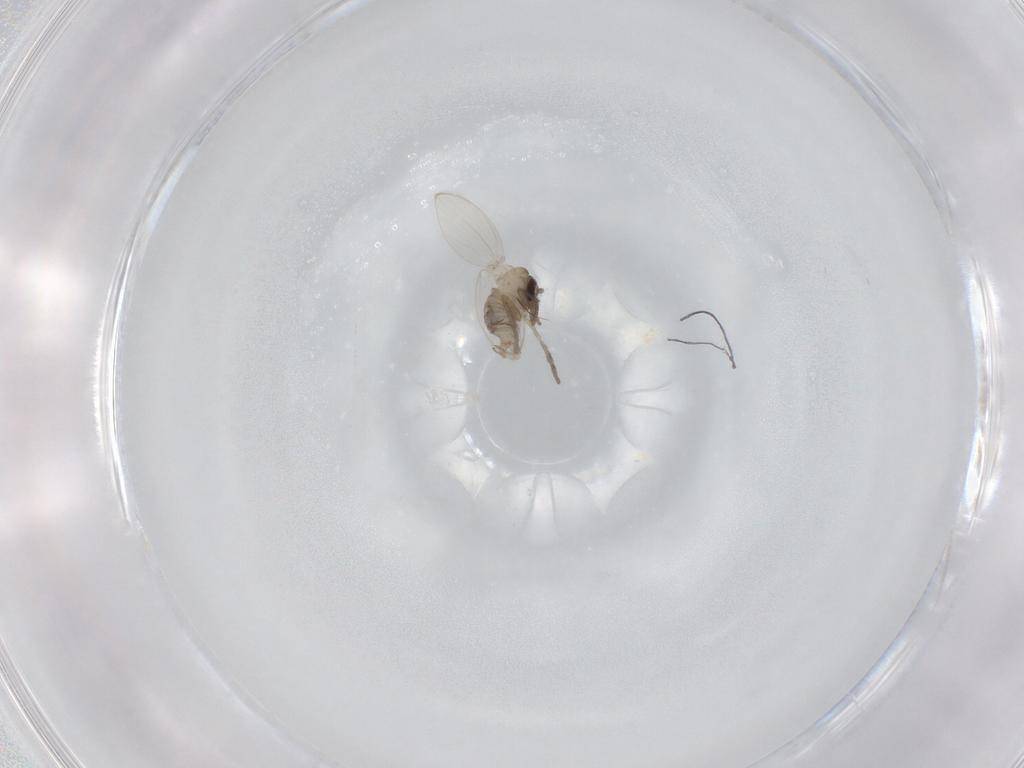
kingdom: Animalia
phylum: Arthropoda
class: Insecta
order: Diptera
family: Psychodidae
